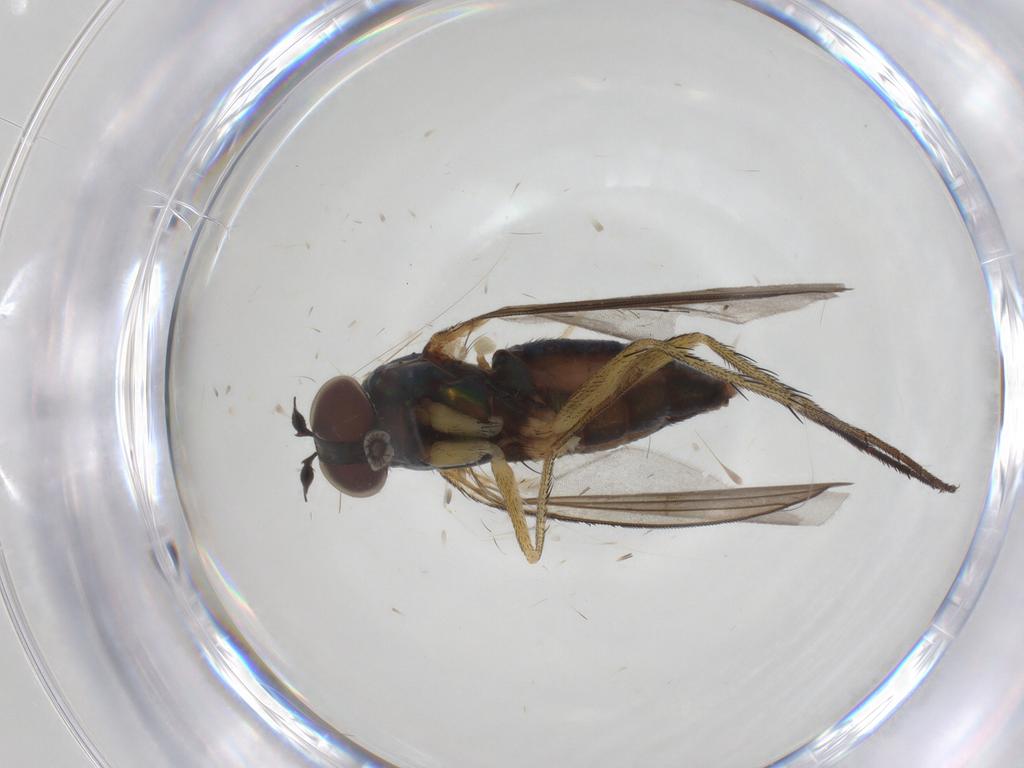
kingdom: Animalia
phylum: Arthropoda
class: Insecta
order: Diptera
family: Dolichopodidae
